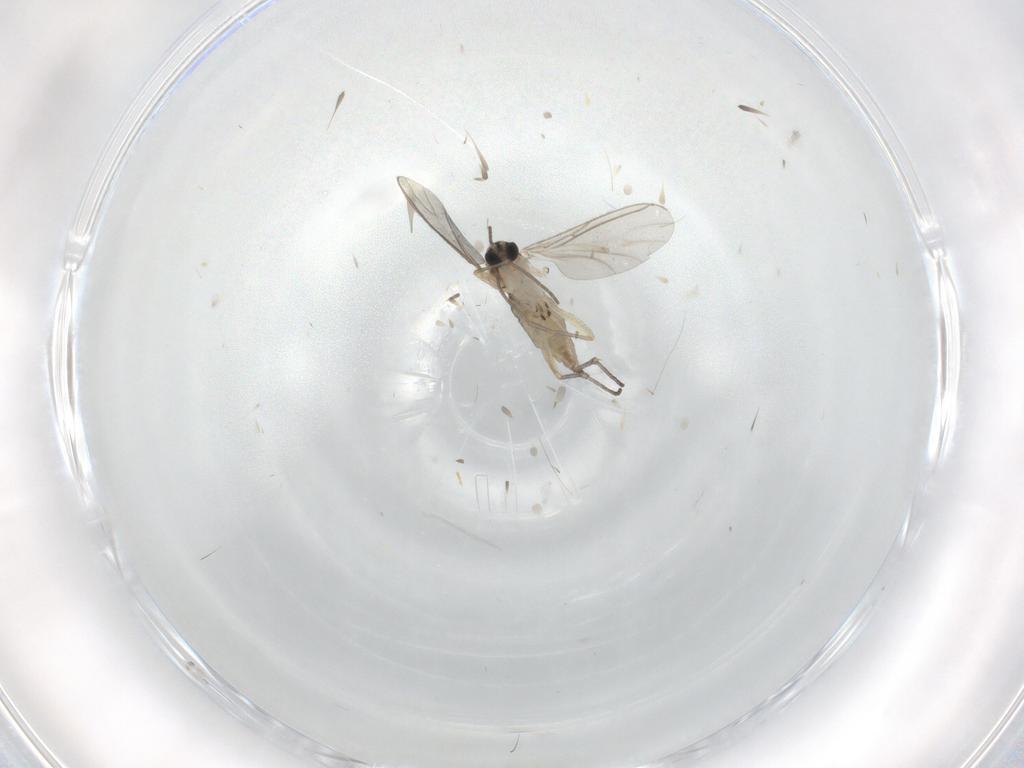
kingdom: Animalia
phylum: Arthropoda
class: Insecta
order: Diptera
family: Sciaridae
